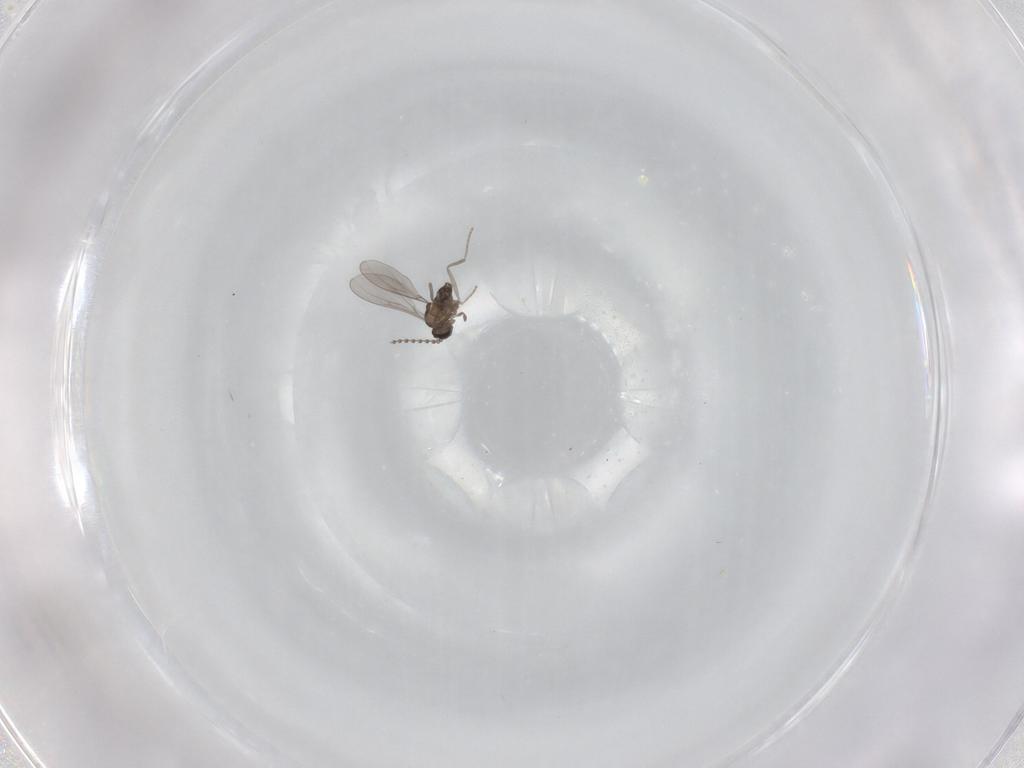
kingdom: Animalia
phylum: Arthropoda
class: Insecta
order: Diptera
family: Cecidomyiidae
